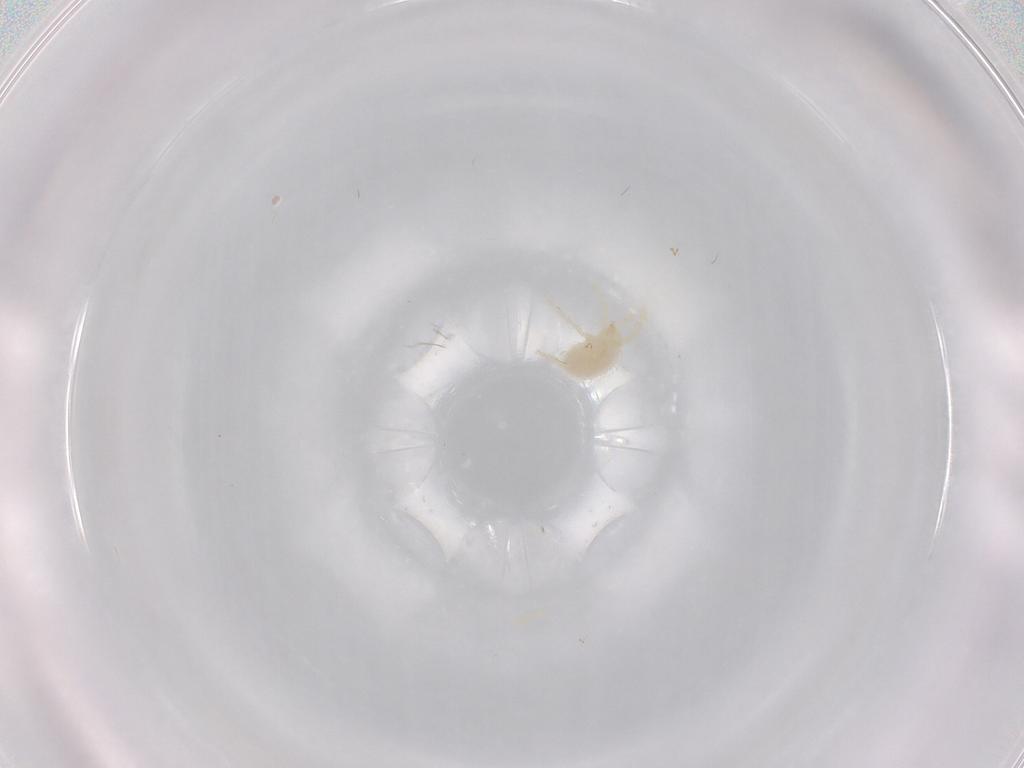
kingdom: Animalia
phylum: Arthropoda
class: Arachnida
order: Trombidiformes
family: Trombidiidae
